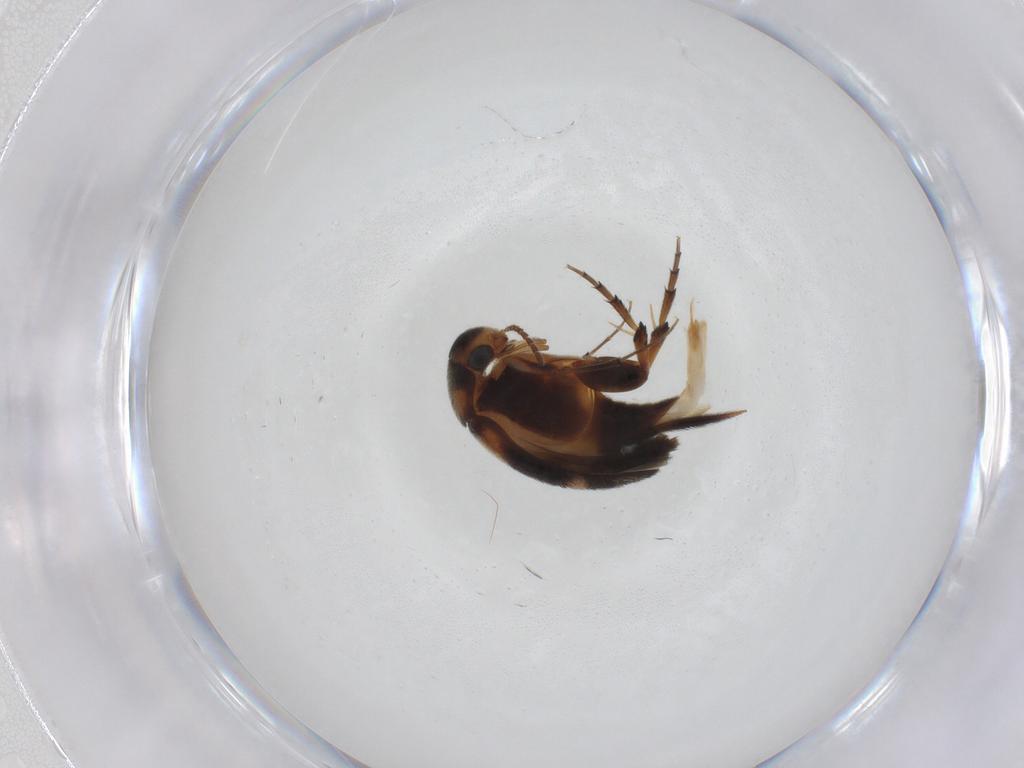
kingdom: Animalia
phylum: Arthropoda
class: Insecta
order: Coleoptera
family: Mordellidae
